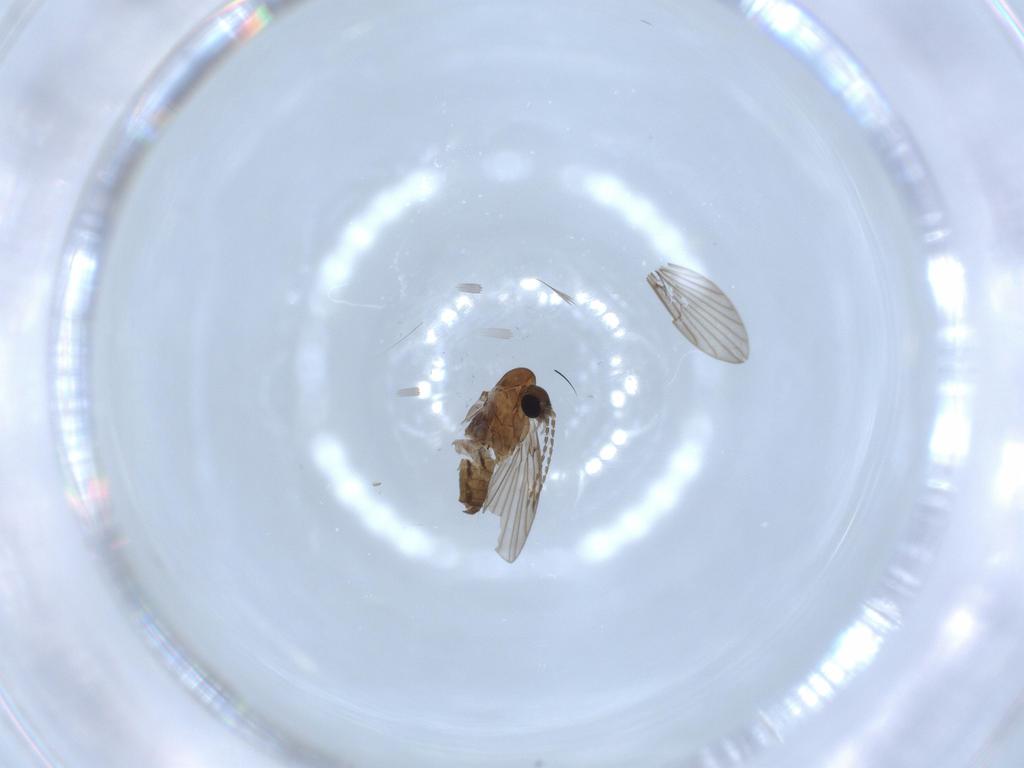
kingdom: Animalia
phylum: Arthropoda
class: Insecta
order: Diptera
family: Psychodidae
